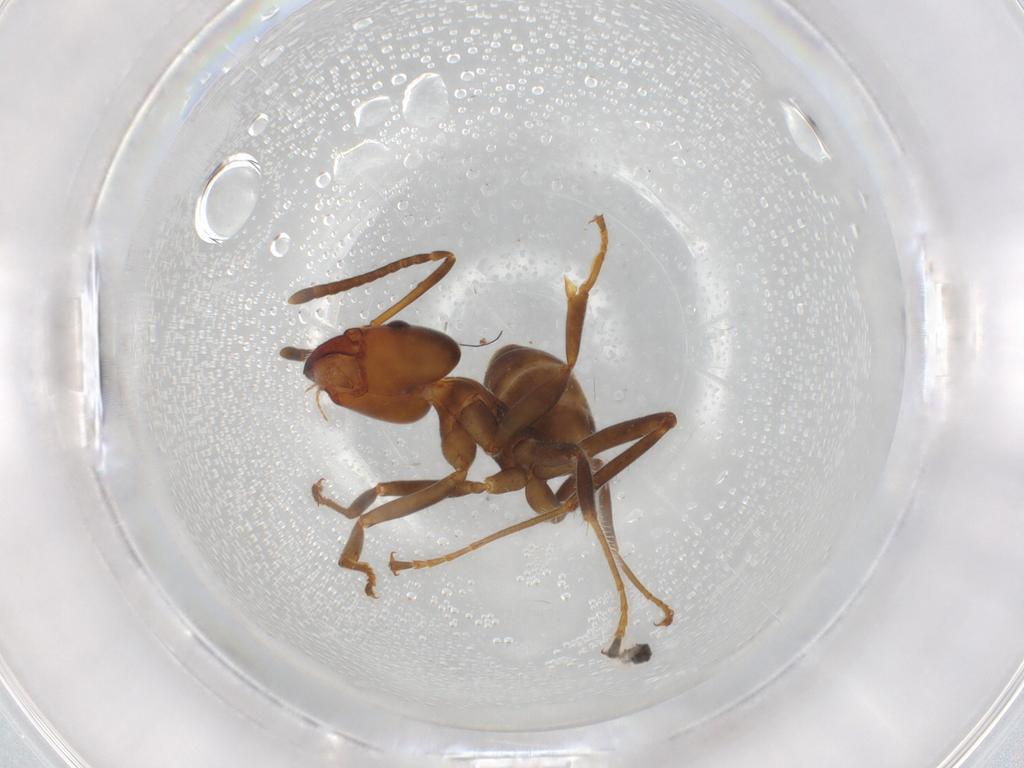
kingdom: Animalia
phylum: Arthropoda
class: Insecta
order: Hymenoptera
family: Formicidae
